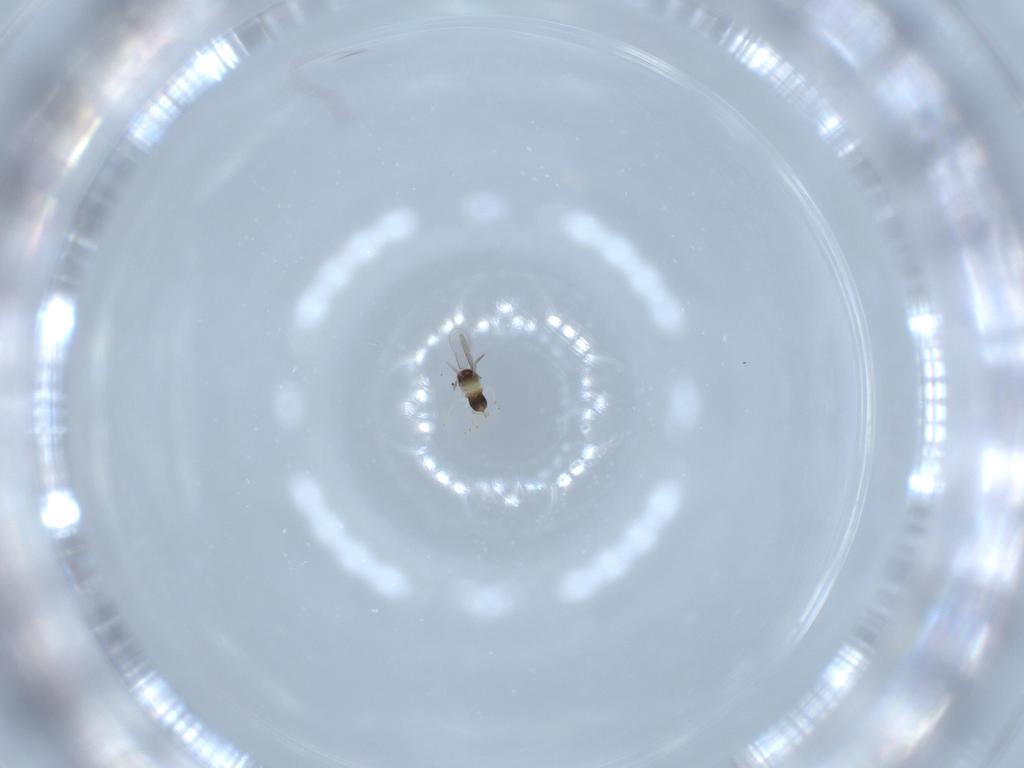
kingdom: Animalia
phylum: Arthropoda
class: Insecta
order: Hymenoptera
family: Aphelinidae
